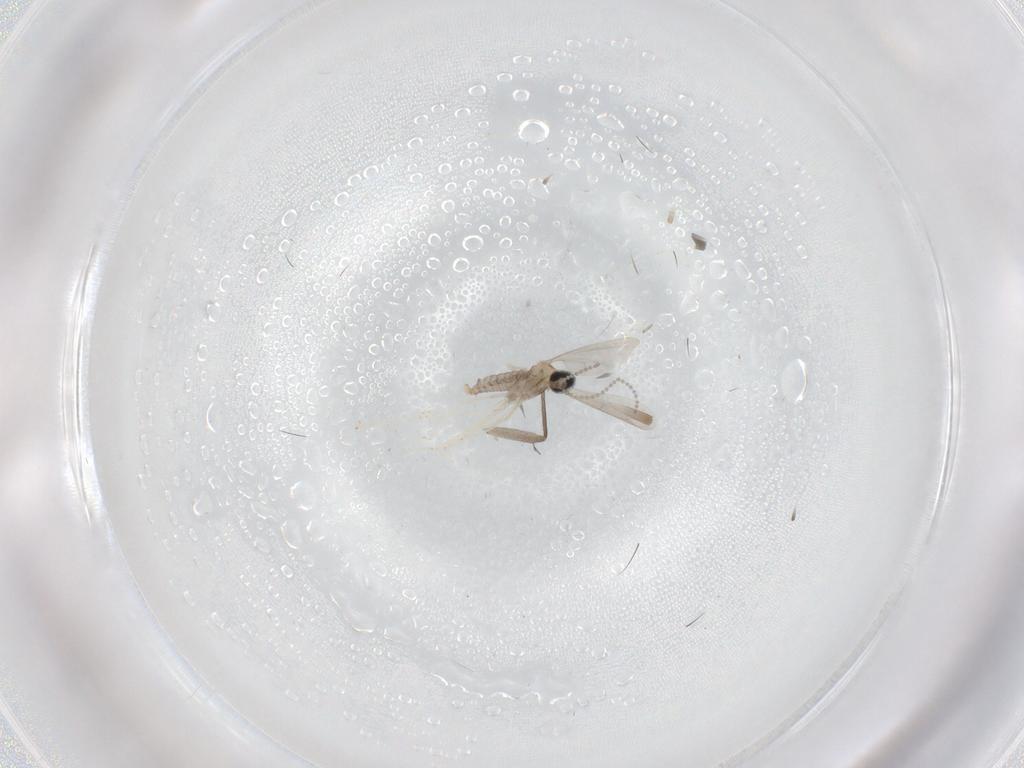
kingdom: Animalia
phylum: Arthropoda
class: Insecta
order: Diptera
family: Cecidomyiidae
